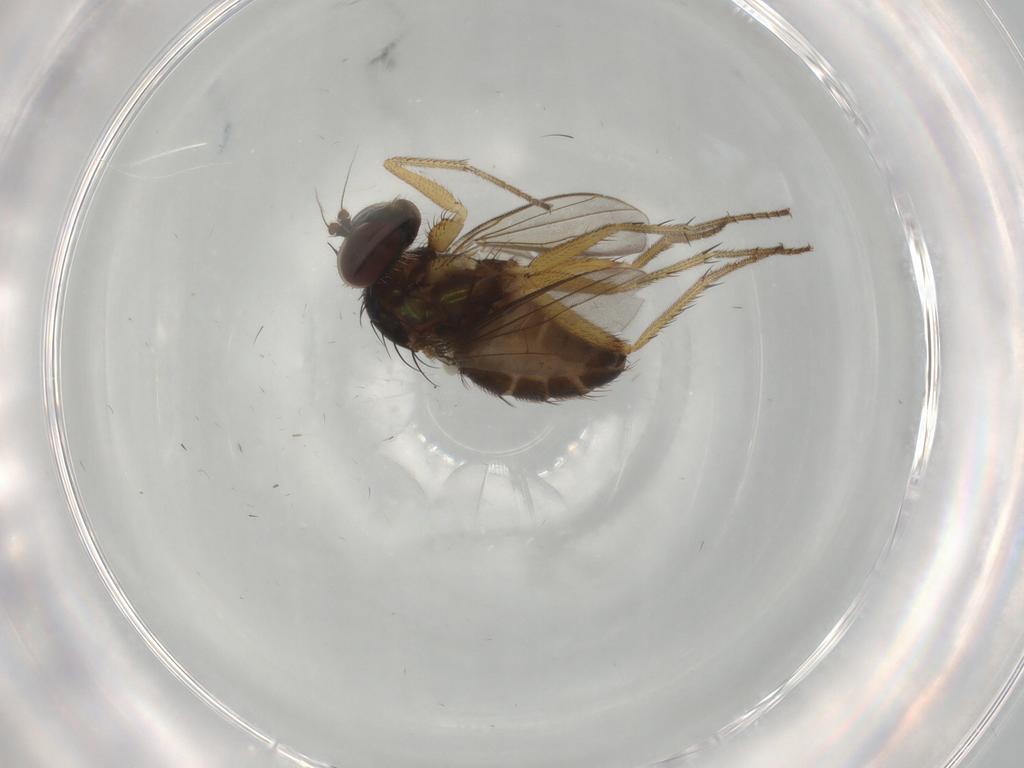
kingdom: Animalia
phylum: Arthropoda
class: Insecta
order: Diptera
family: Dolichopodidae
